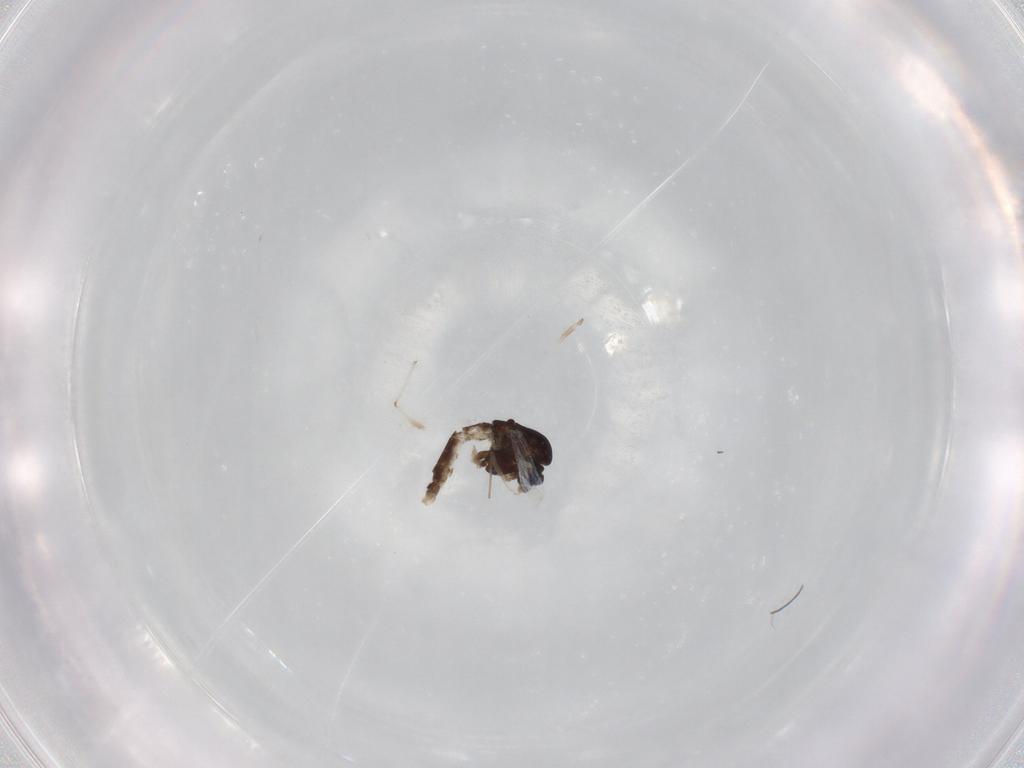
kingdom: Animalia
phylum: Arthropoda
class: Insecta
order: Diptera
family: Chironomidae
